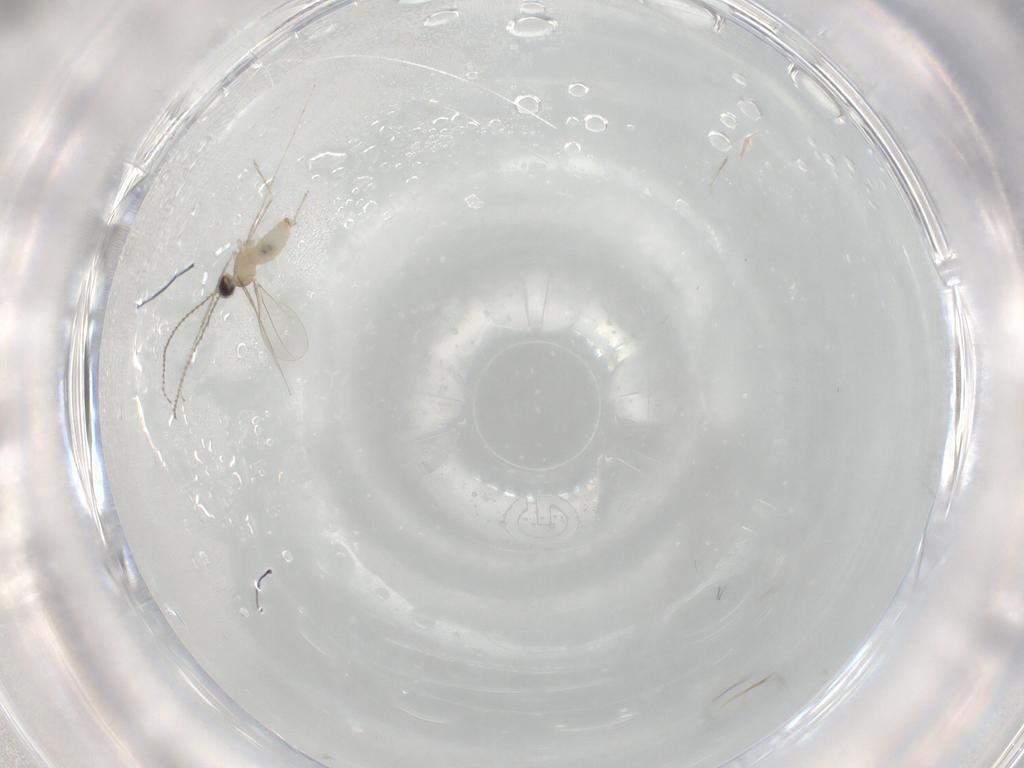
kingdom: Animalia
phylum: Arthropoda
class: Insecta
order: Diptera
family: Cecidomyiidae
